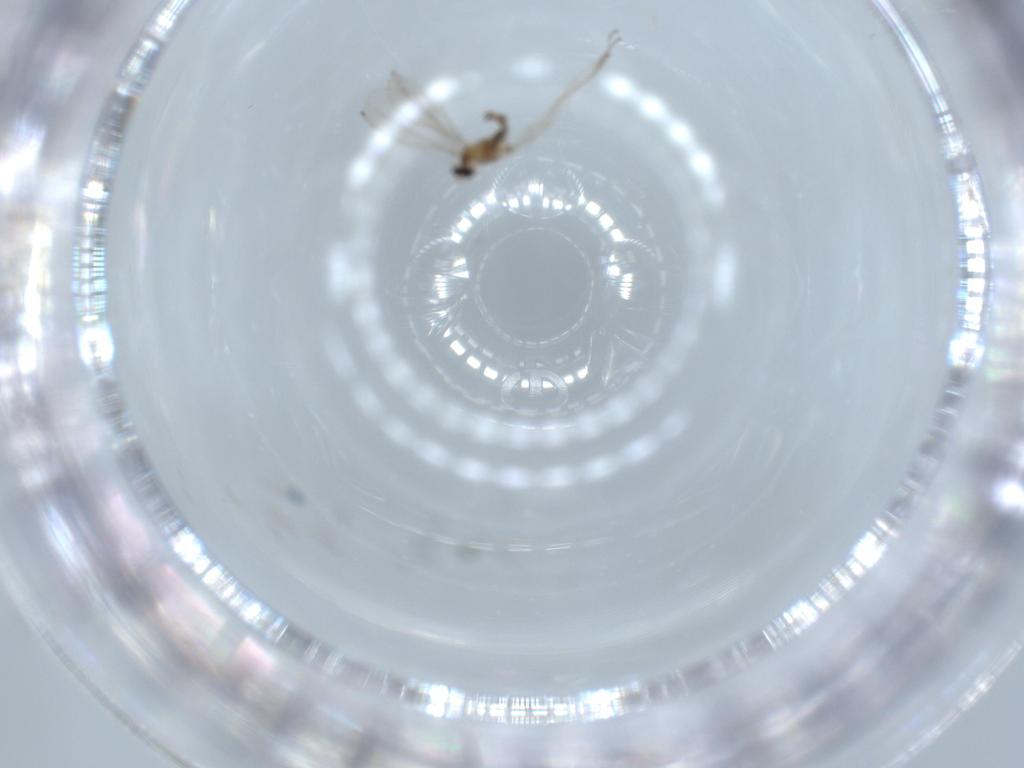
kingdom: Animalia
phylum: Arthropoda
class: Insecta
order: Diptera
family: Cecidomyiidae
